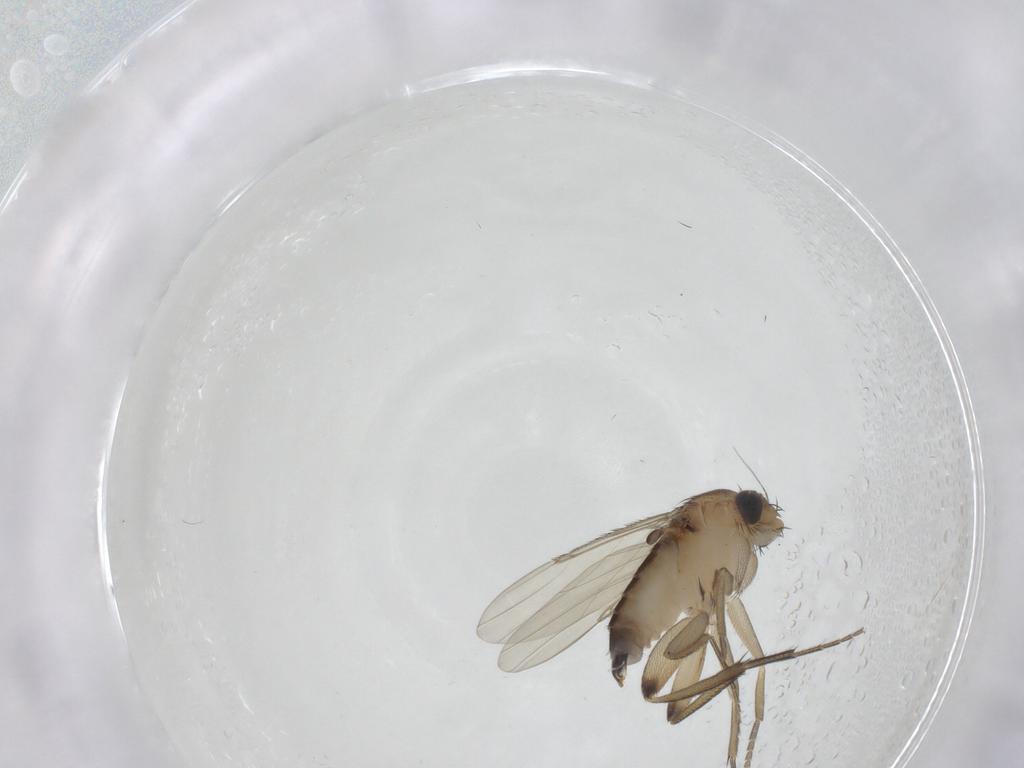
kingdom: Animalia
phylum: Arthropoda
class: Insecta
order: Diptera
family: Phoridae
